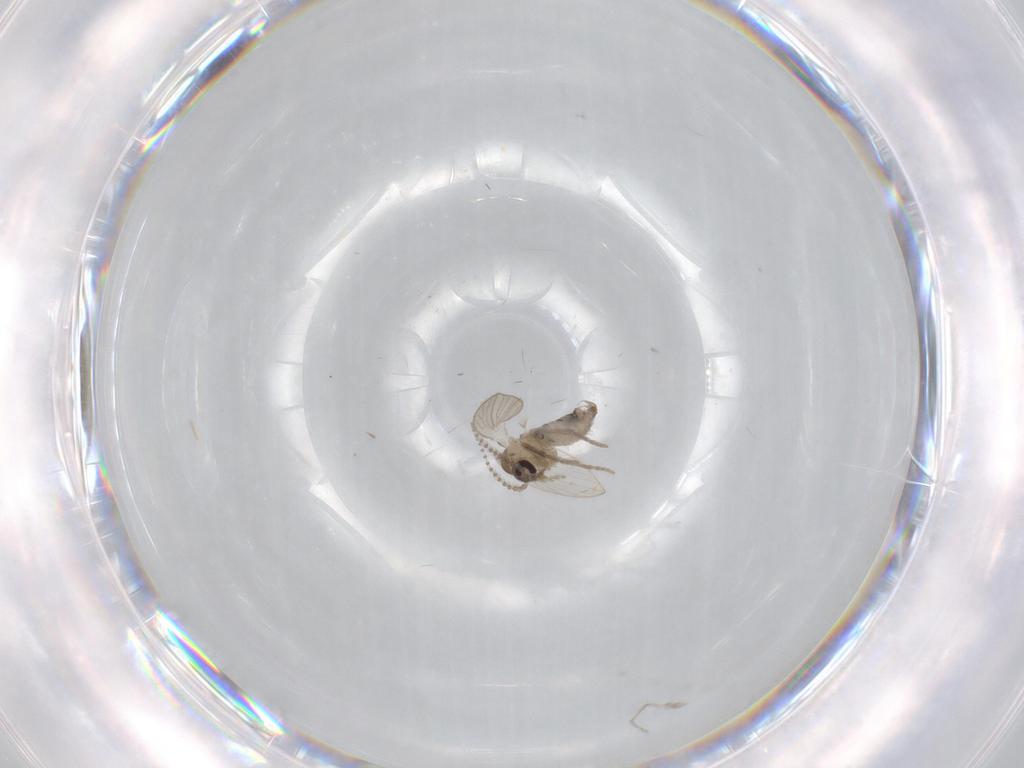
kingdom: Animalia
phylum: Arthropoda
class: Insecta
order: Diptera
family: Psychodidae
